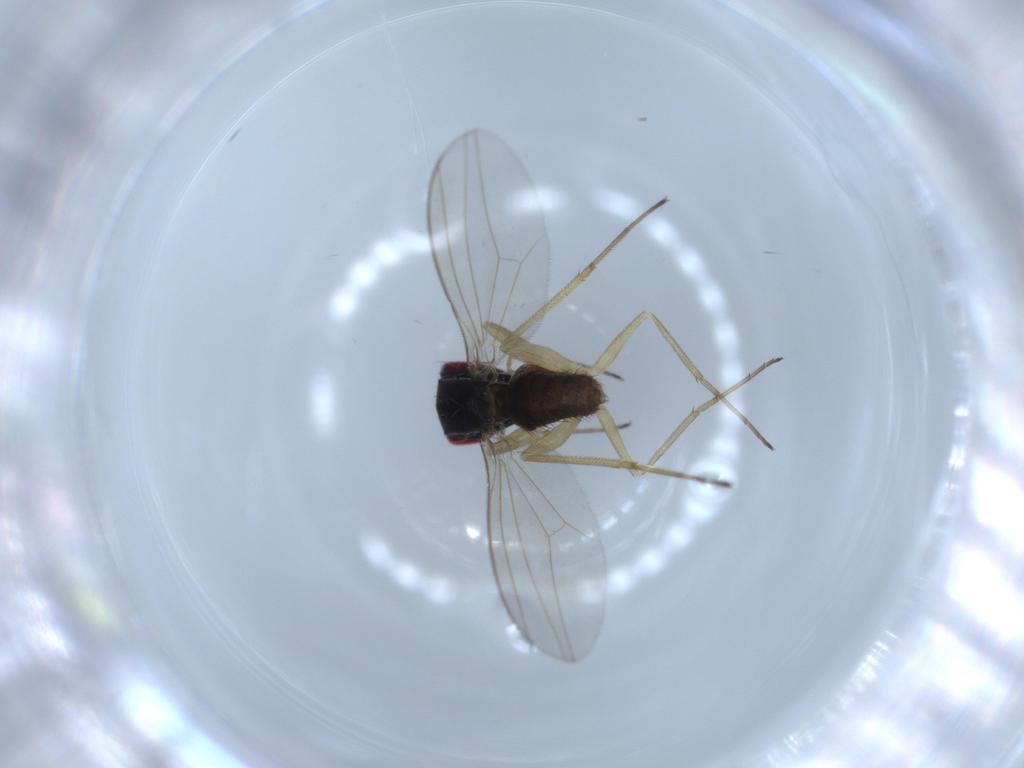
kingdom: Animalia
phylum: Arthropoda
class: Insecta
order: Diptera
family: Dolichopodidae
